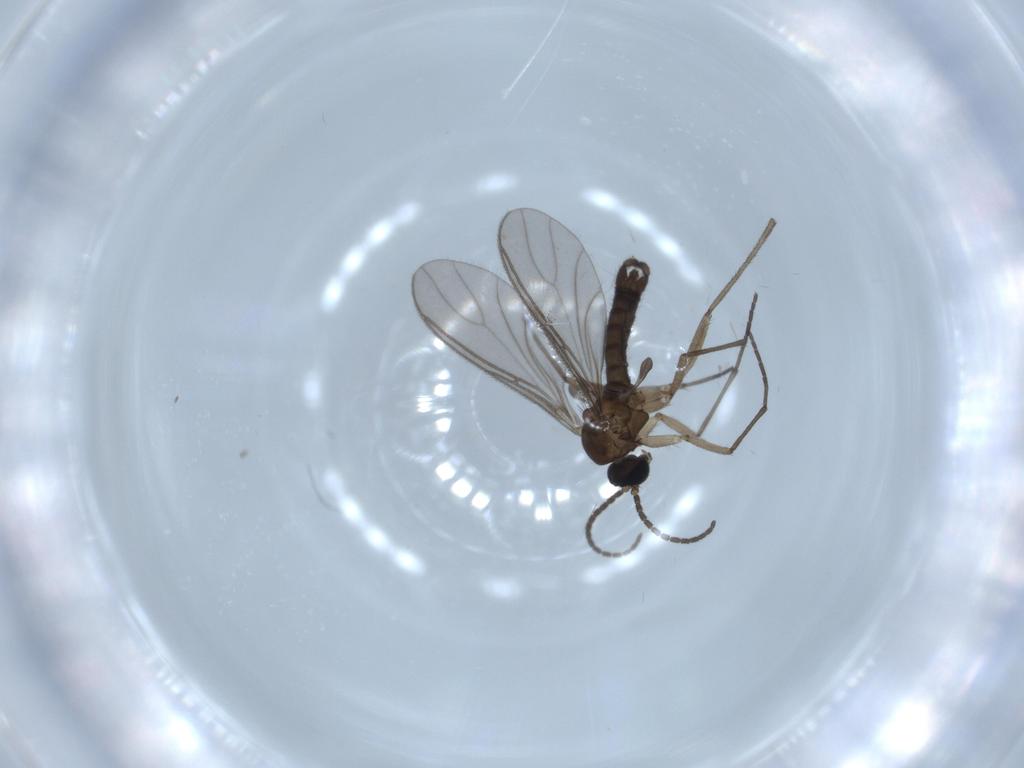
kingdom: Animalia
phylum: Arthropoda
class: Insecta
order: Diptera
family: Sciaridae
